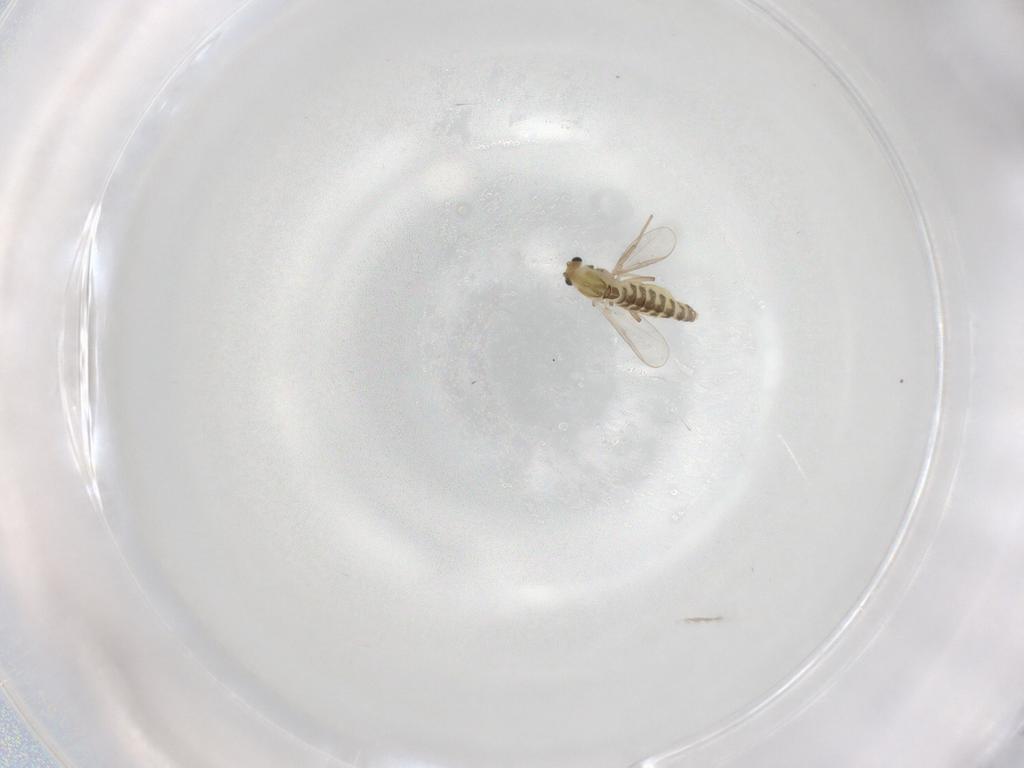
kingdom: Animalia
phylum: Arthropoda
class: Insecta
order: Diptera
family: Chironomidae
